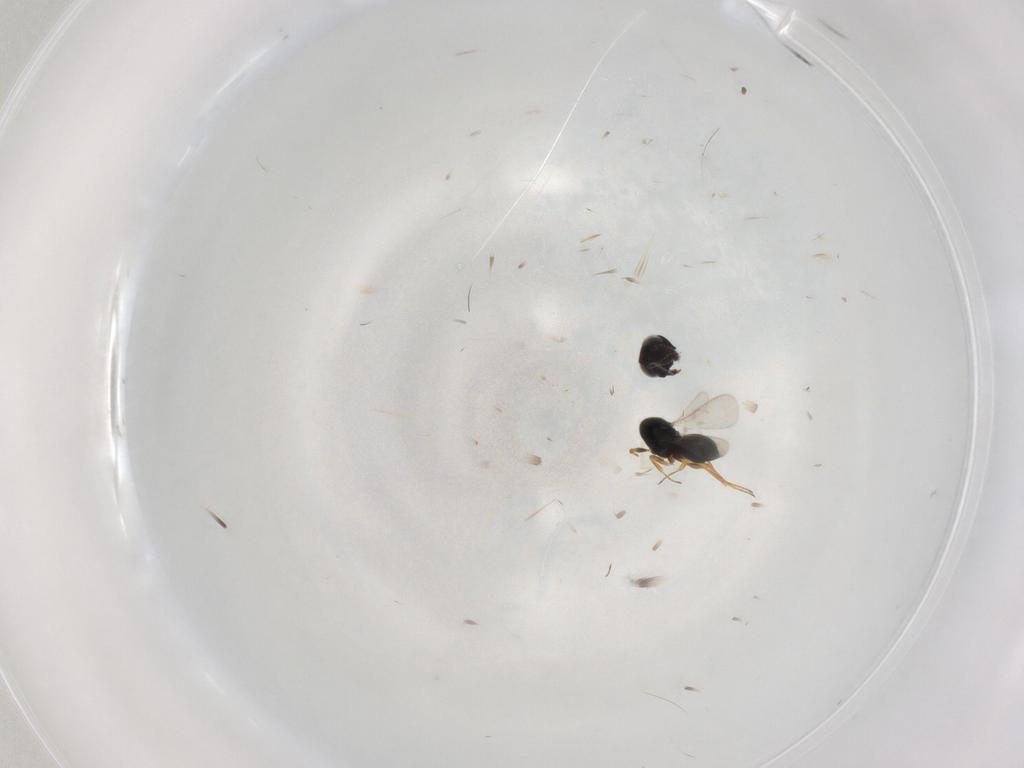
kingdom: Animalia
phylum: Arthropoda
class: Insecta
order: Hymenoptera
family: Scelionidae
